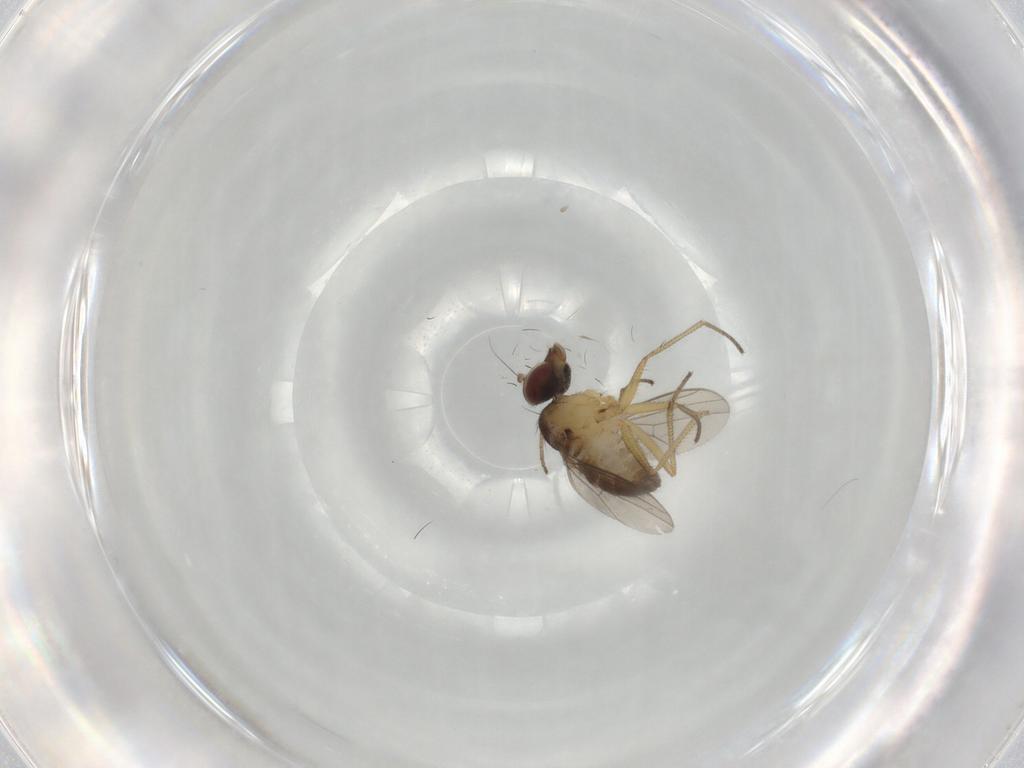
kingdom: Animalia
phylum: Arthropoda
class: Insecta
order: Diptera
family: Dolichopodidae
